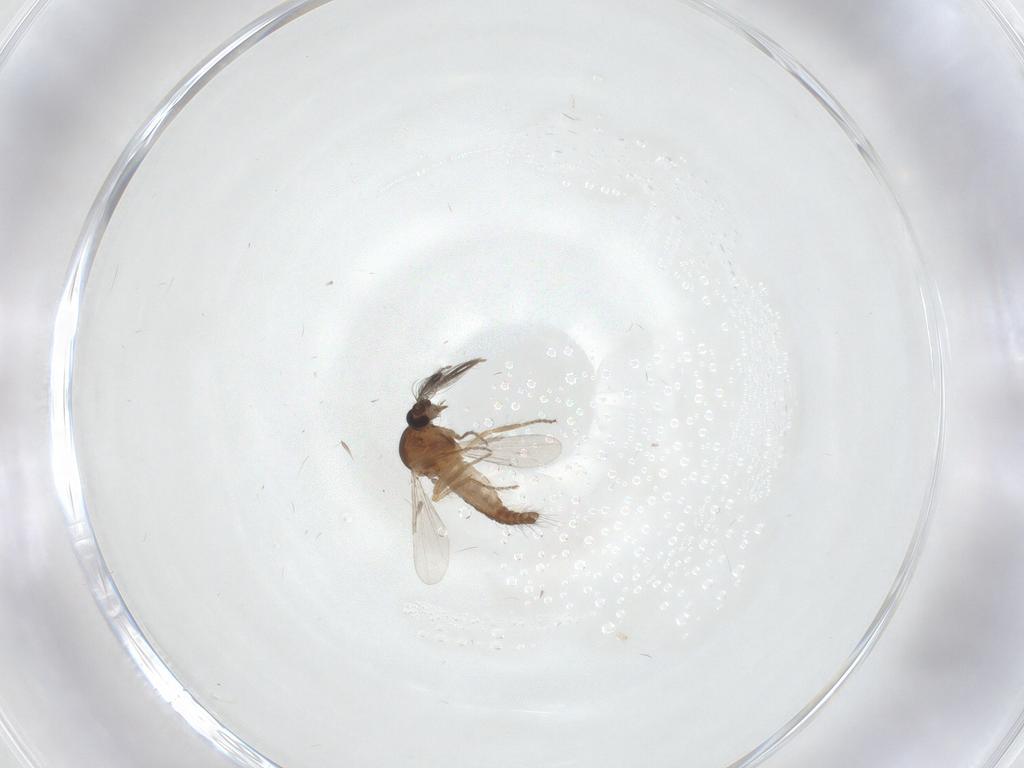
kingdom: Animalia
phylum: Arthropoda
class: Insecta
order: Diptera
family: Ceratopogonidae
